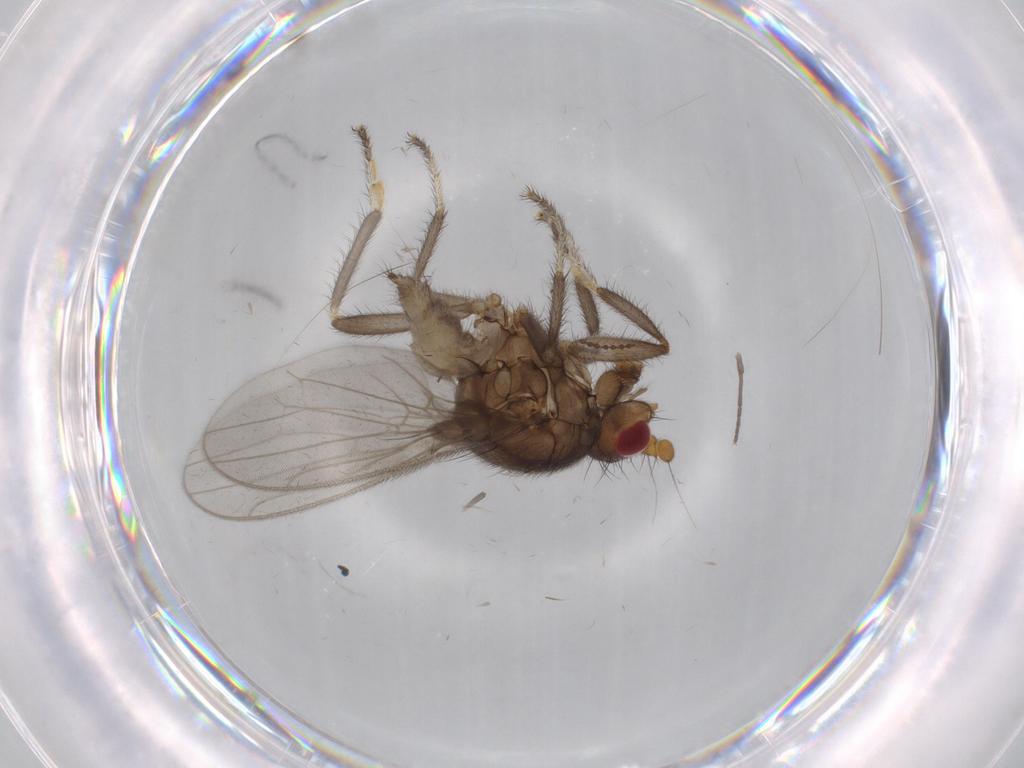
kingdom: Animalia
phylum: Arthropoda
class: Insecta
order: Diptera
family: Sphaeroceridae
